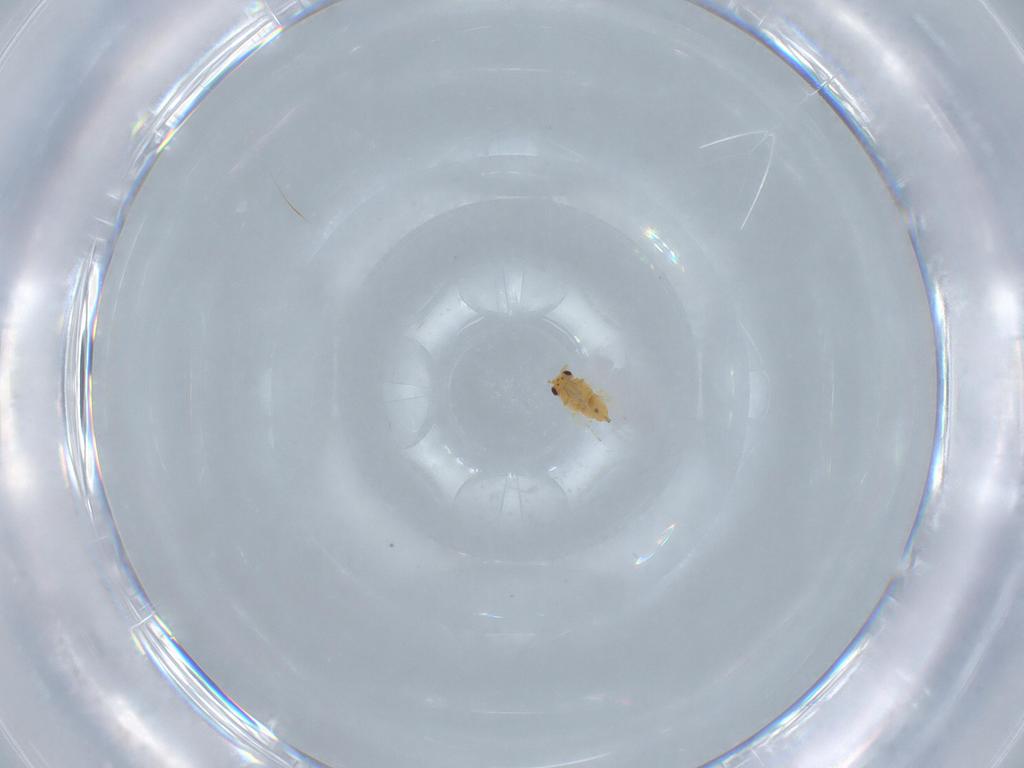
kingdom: Animalia
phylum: Arthropoda
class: Insecta
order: Hymenoptera
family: Aphelinidae
